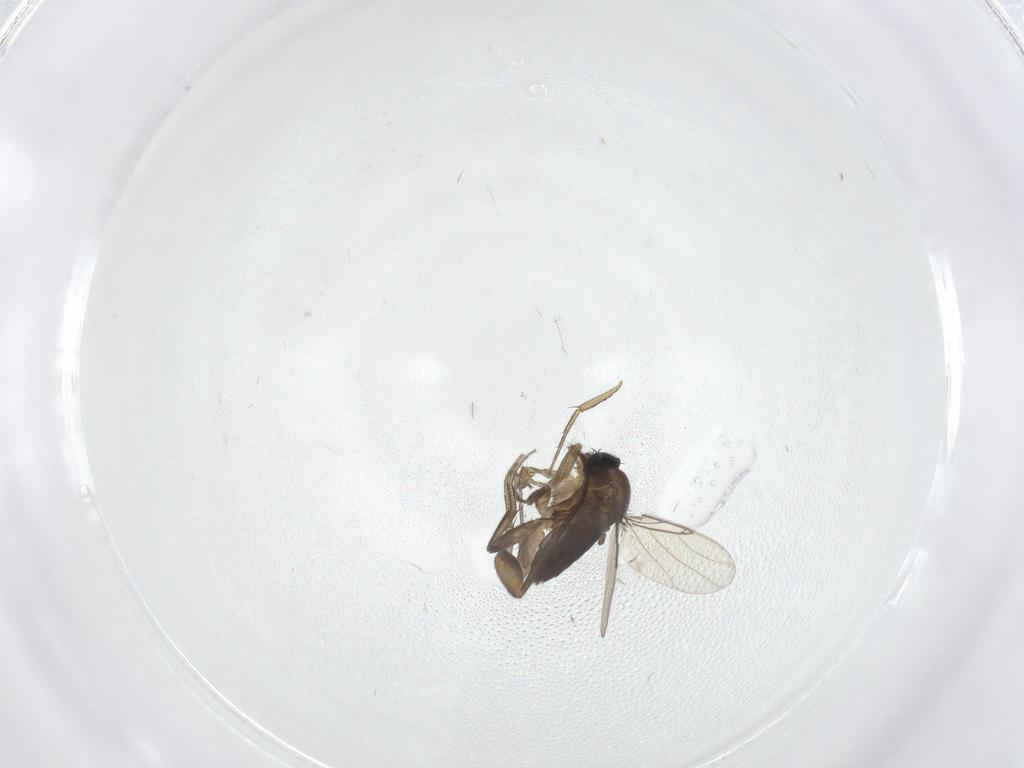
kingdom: Animalia
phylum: Arthropoda
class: Insecta
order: Diptera
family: Mycetophilidae
